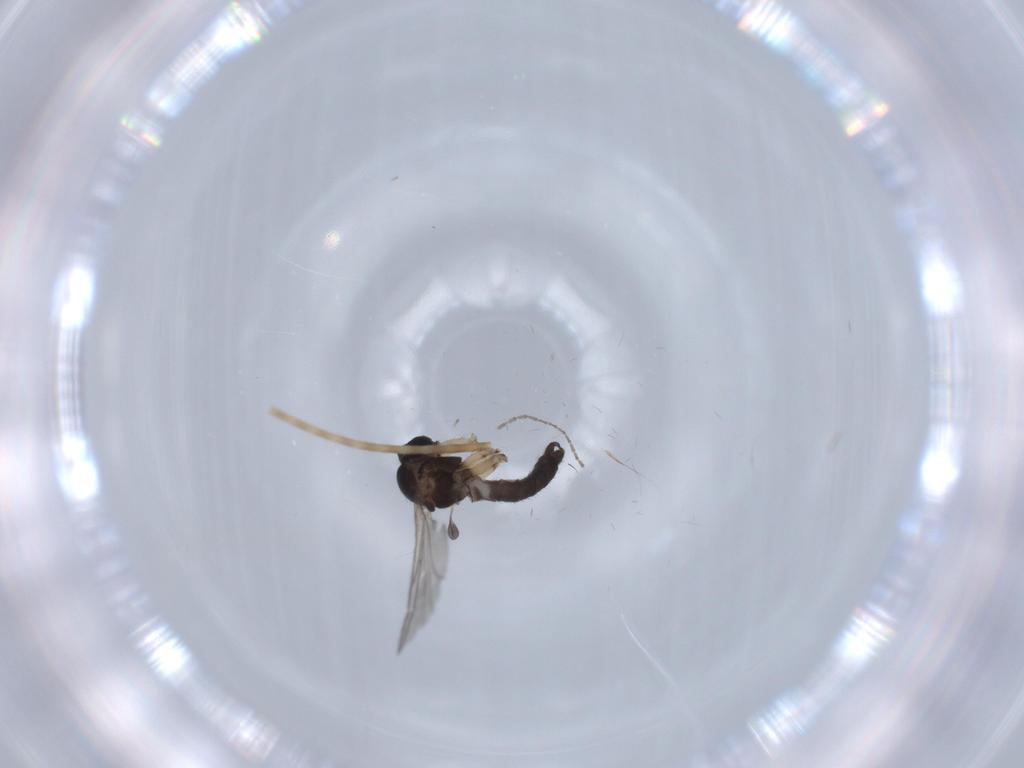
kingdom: Animalia
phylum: Arthropoda
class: Insecta
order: Diptera
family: Sciaridae
